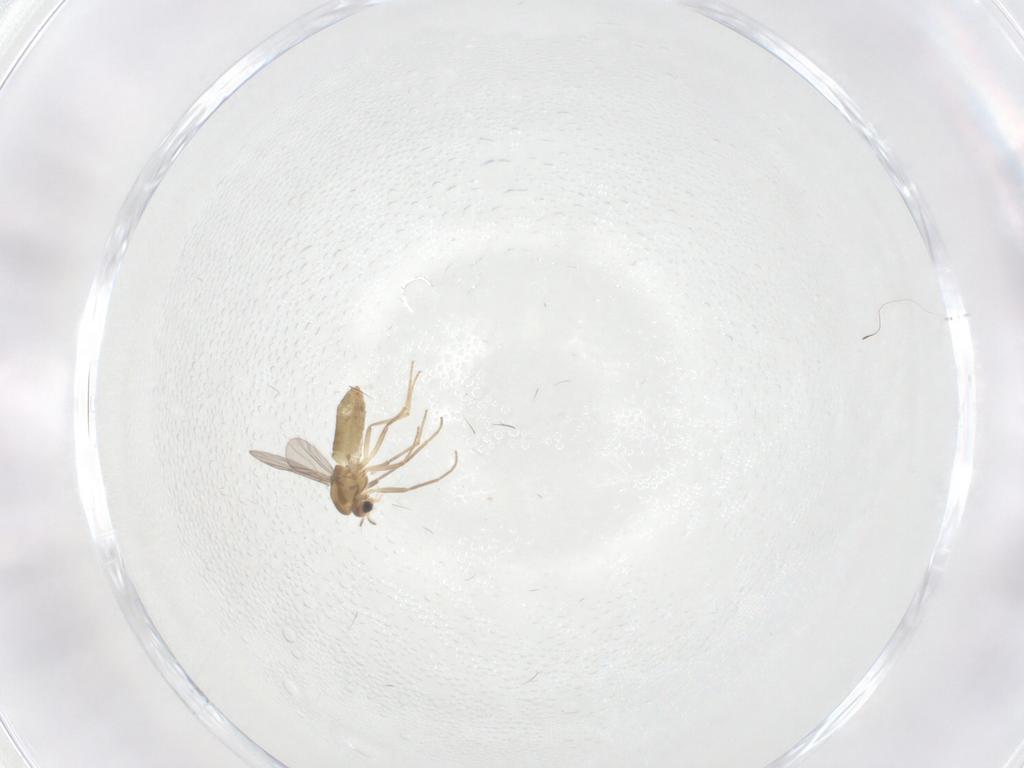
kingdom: Animalia
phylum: Arthropoda
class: Insecta
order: Diptera
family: Chironomidae
